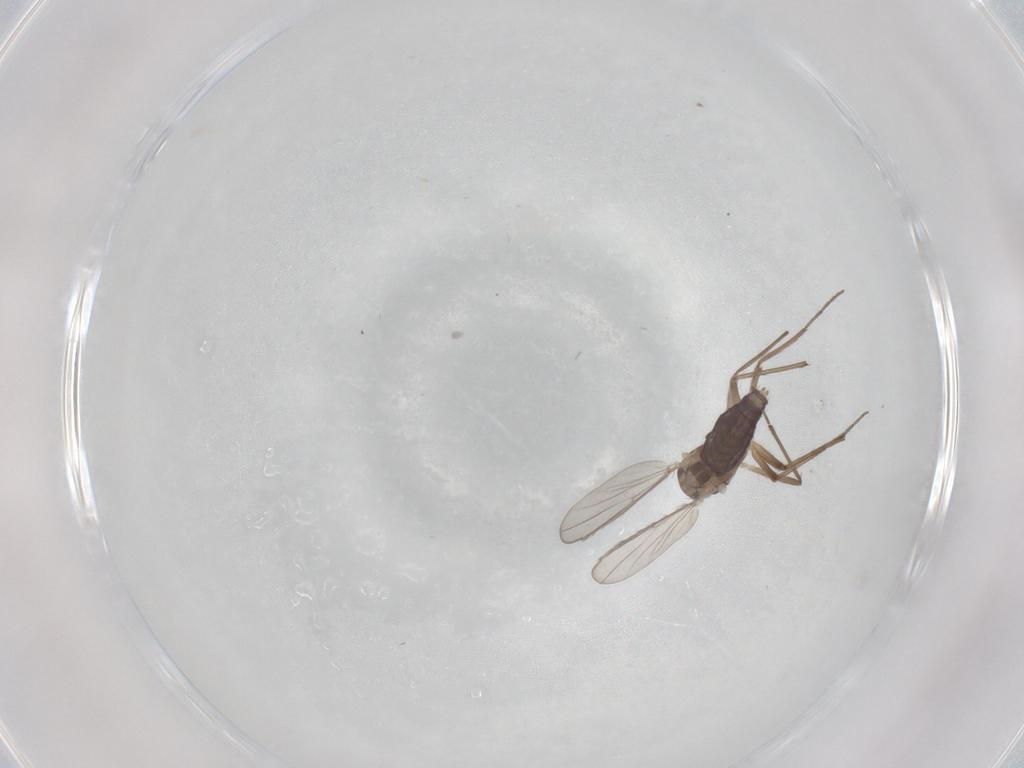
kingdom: Animalia
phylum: Arthropoda
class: Insecta
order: Diptera
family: Chironomidae
